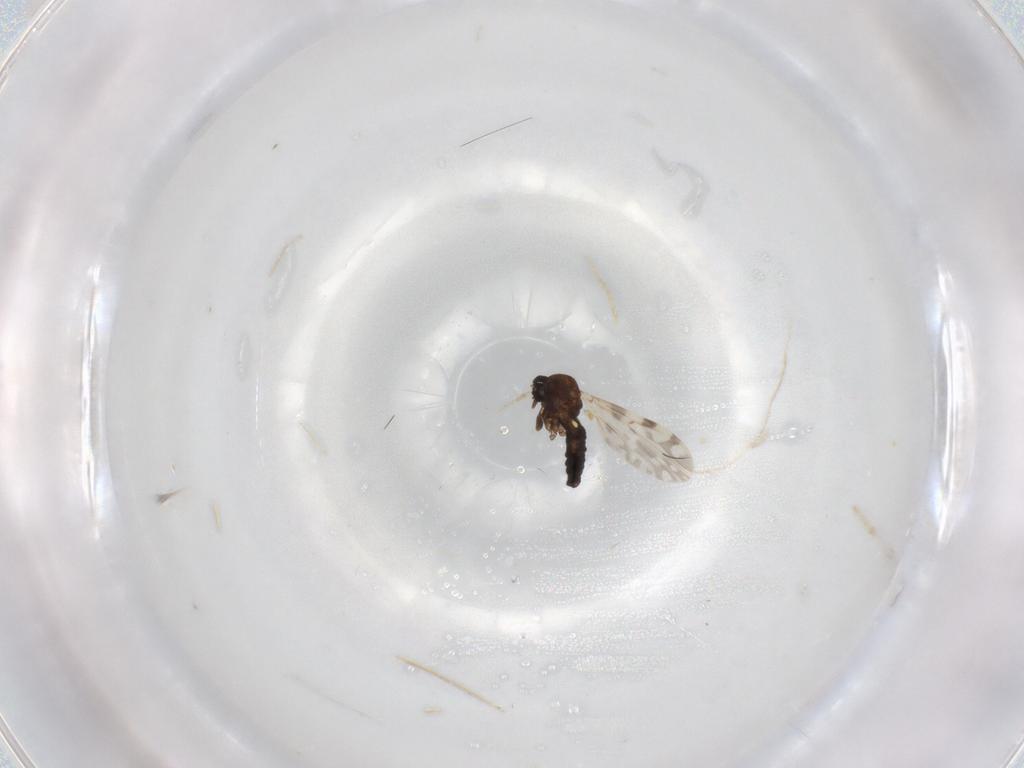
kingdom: Animalia
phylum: Arthropoda
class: Insecta
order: Diptera
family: Ceratopogonidae
